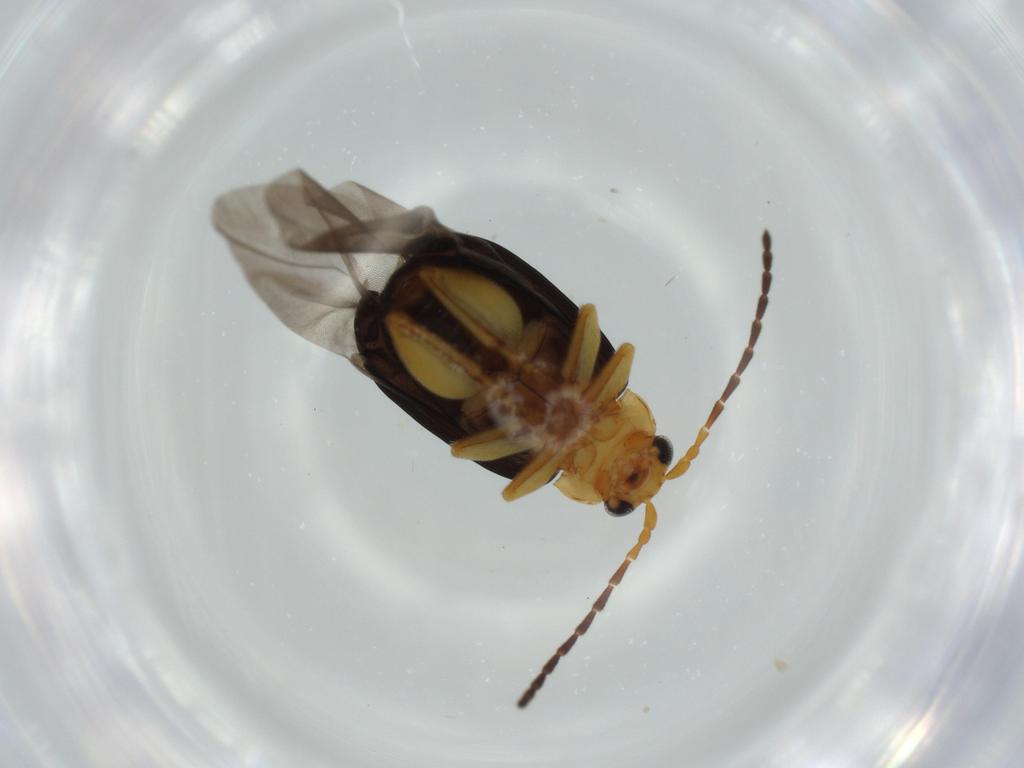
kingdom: Animalia
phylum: Arthropoda
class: Insecta
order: Coleoptera
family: Chrysomelidae
